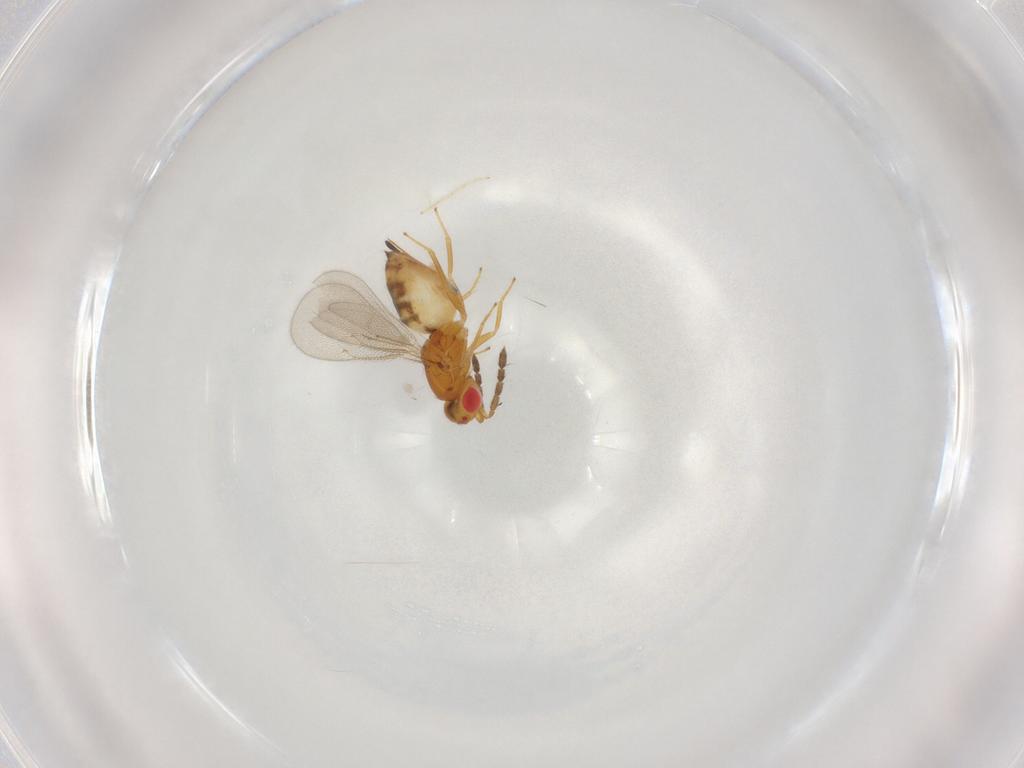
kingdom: Animalia
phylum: Arthropoda
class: Insecta
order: Hymenoptera
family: Eulophidae
